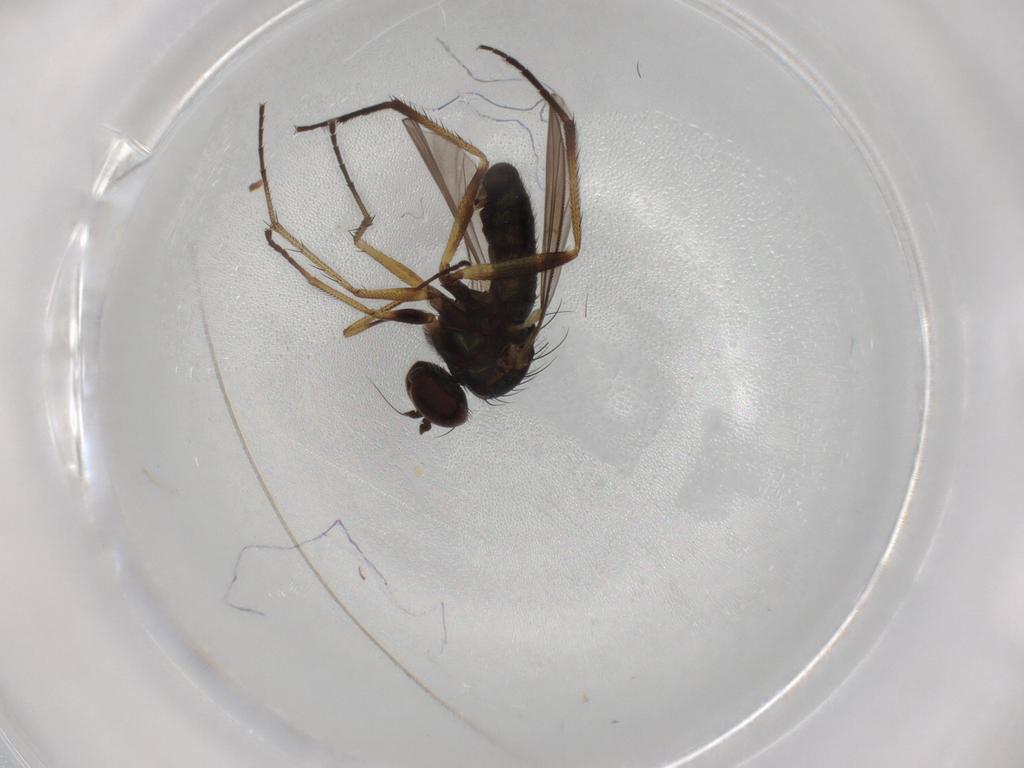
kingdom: Animalia
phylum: Arthropoda
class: Insecta
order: Diptera
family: Dolichopodidae
